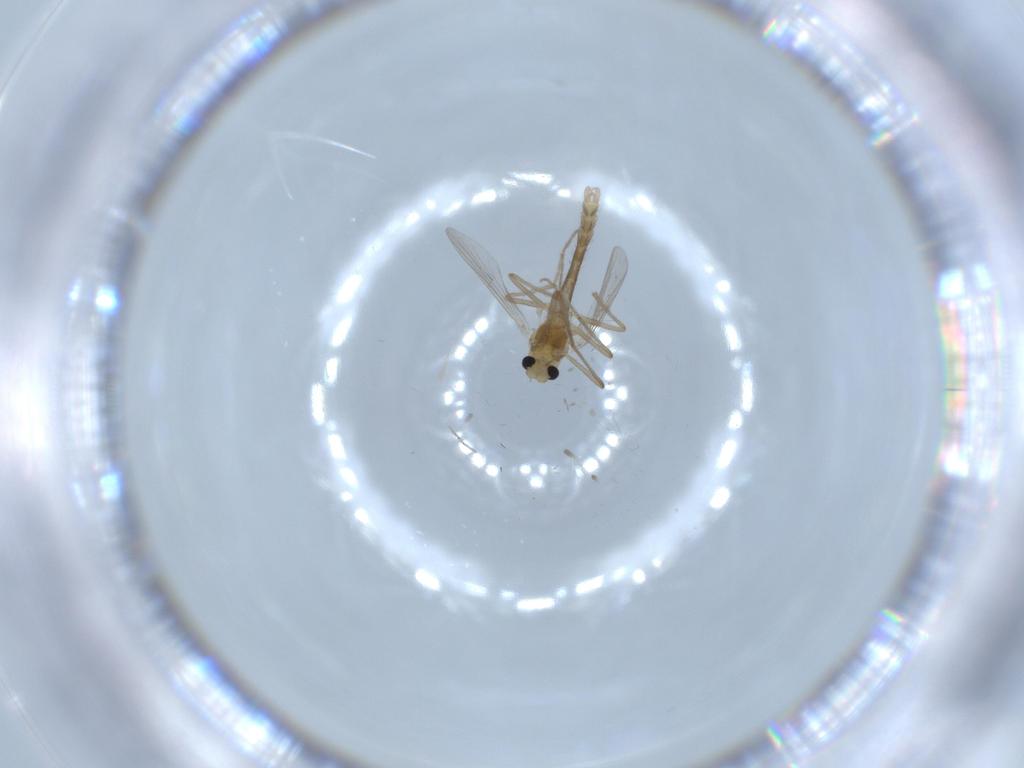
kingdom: Animalia
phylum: Arthropoda
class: Insecta
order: Diptera
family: Chironomidae
